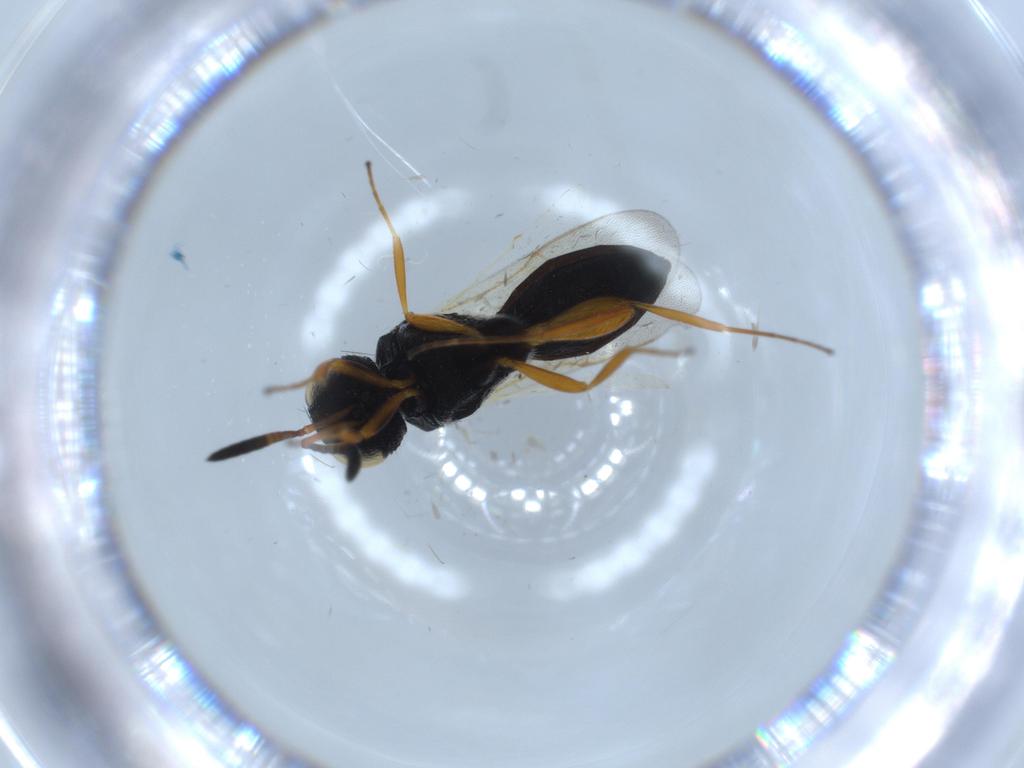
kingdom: Animalia
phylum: Arthropoda
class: Insecta
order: Hymenoptera
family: Scelionidae
